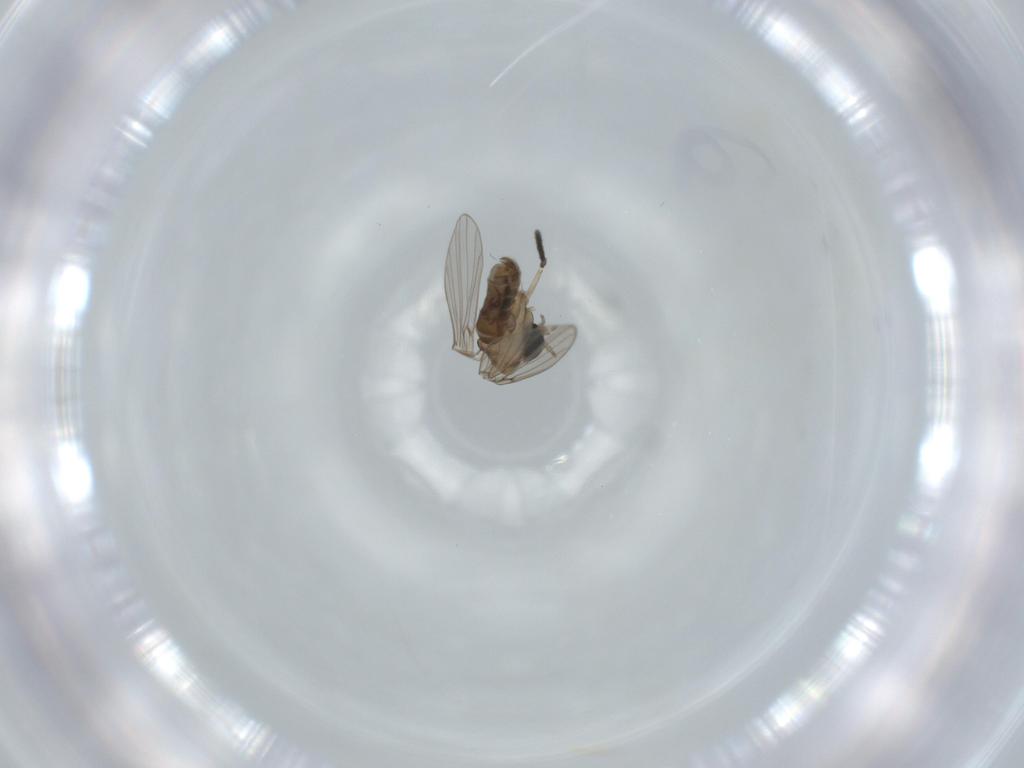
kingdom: Animalia
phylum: Arthropoda
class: Insecta
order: Diptera
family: Psychodidae
